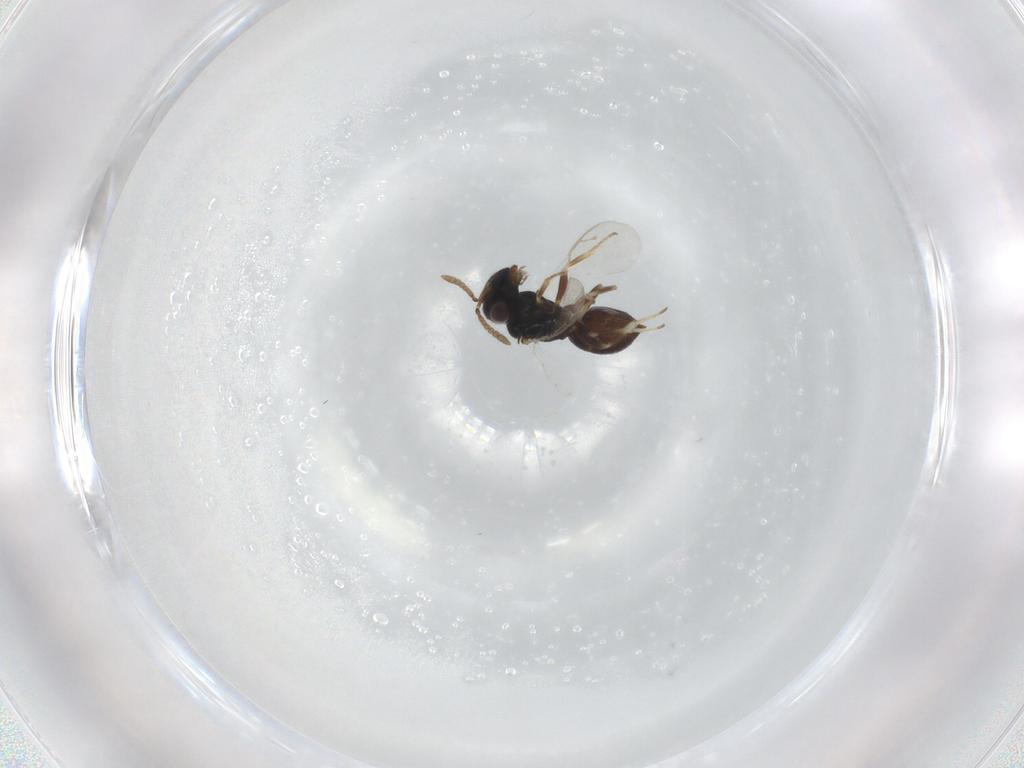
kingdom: Animalia
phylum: Arthropoda
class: Insecta
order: Hymenoptera
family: Pteromalidae
